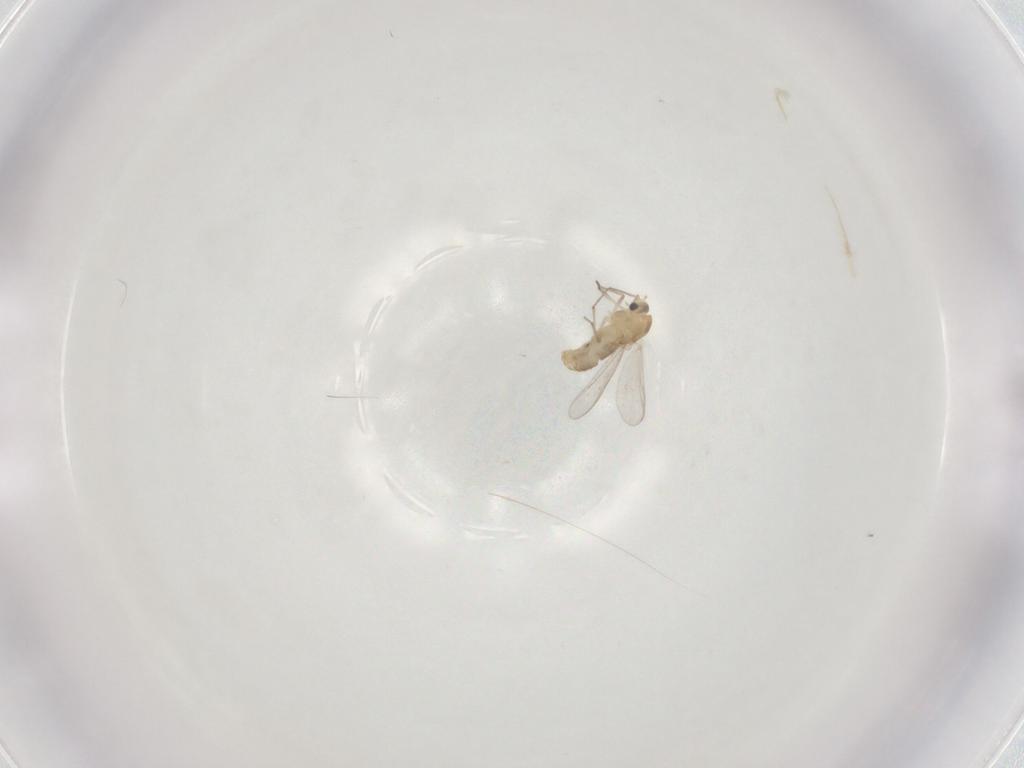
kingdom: Animalia
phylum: Arthropoda
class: Insecta
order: Diptera
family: Chironomidae
